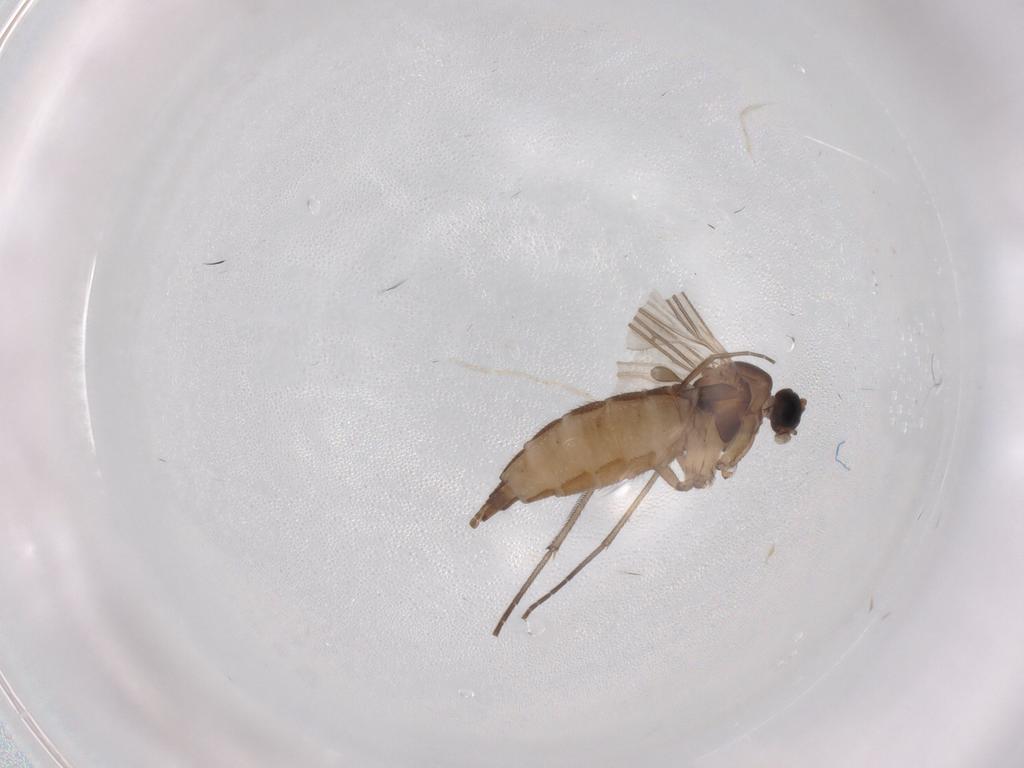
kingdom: Animalia
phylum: Arthropoda
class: Insecta
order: Diptera
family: Sciaridae
